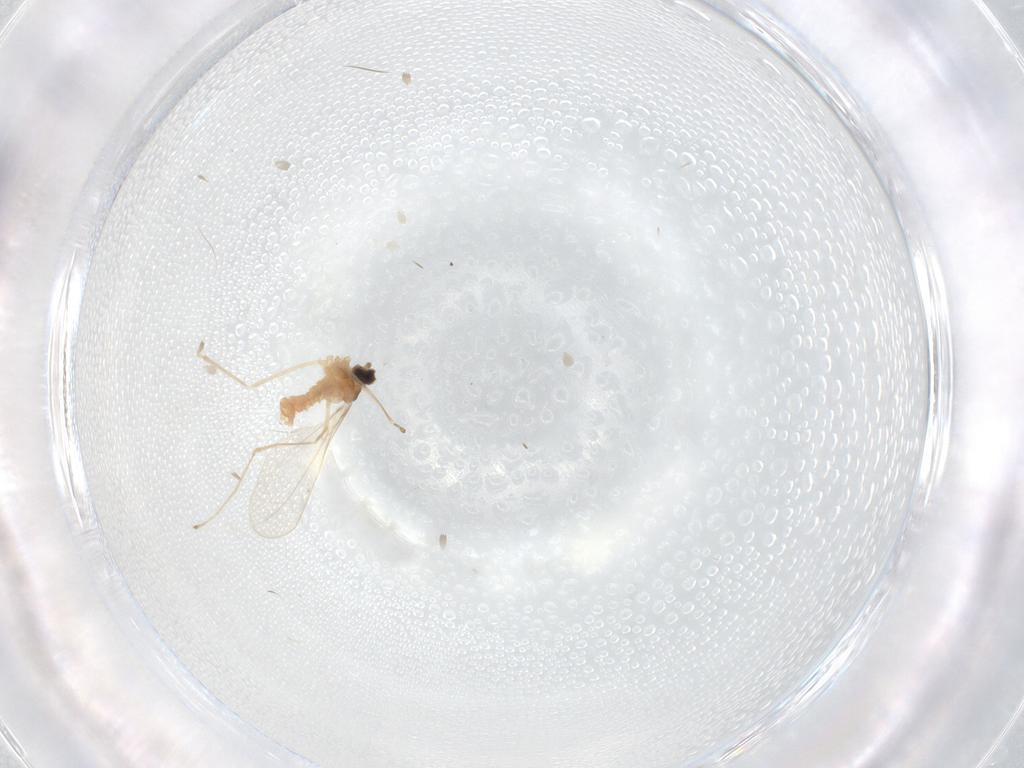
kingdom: Animalia
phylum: Arthropoda
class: Insecta
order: Diptera
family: Cecidomyiidae
